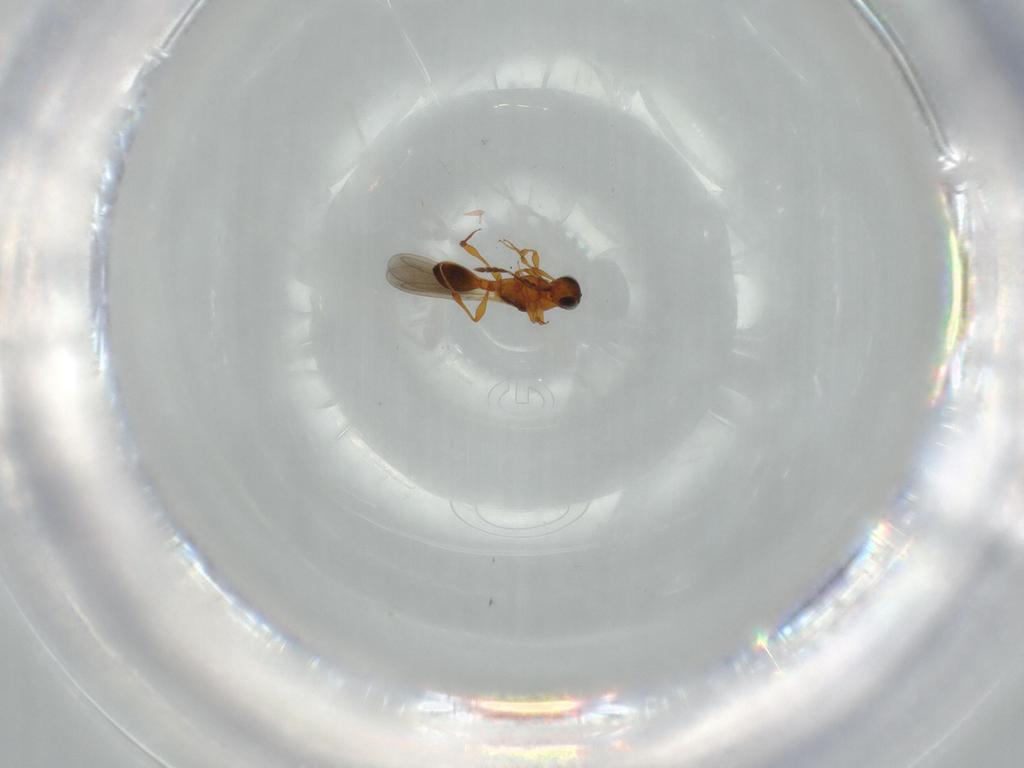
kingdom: Animalia
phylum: Arthropoda
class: Insecta
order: Hymenoptera
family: Platygastridae
